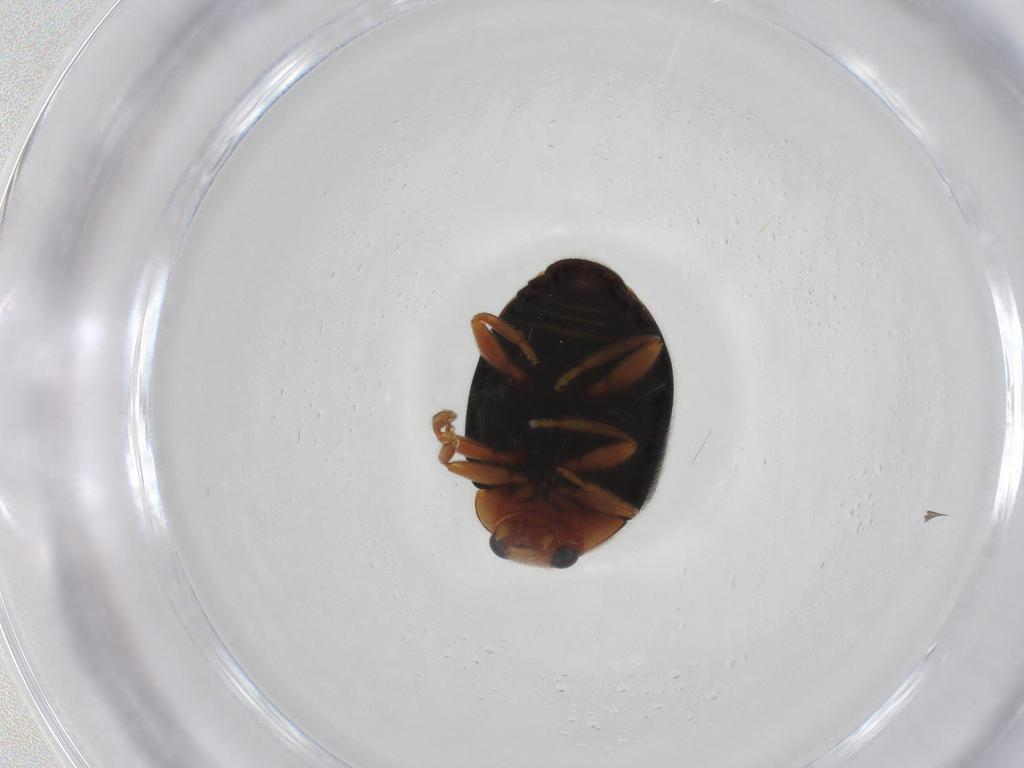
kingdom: Animalia
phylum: Arthropoda
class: Insecta
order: Coleoptera
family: Coccinellidae
